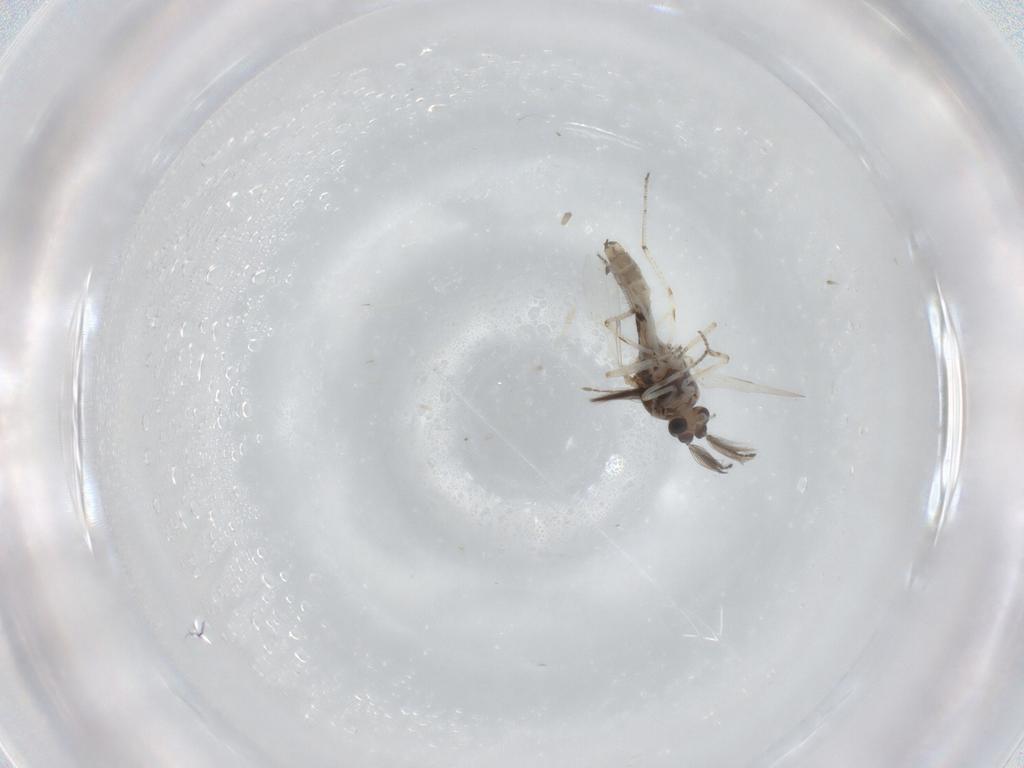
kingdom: Animalia
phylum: Arthropoda
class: Insecta
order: Diptera
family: Ceratopogonidae
